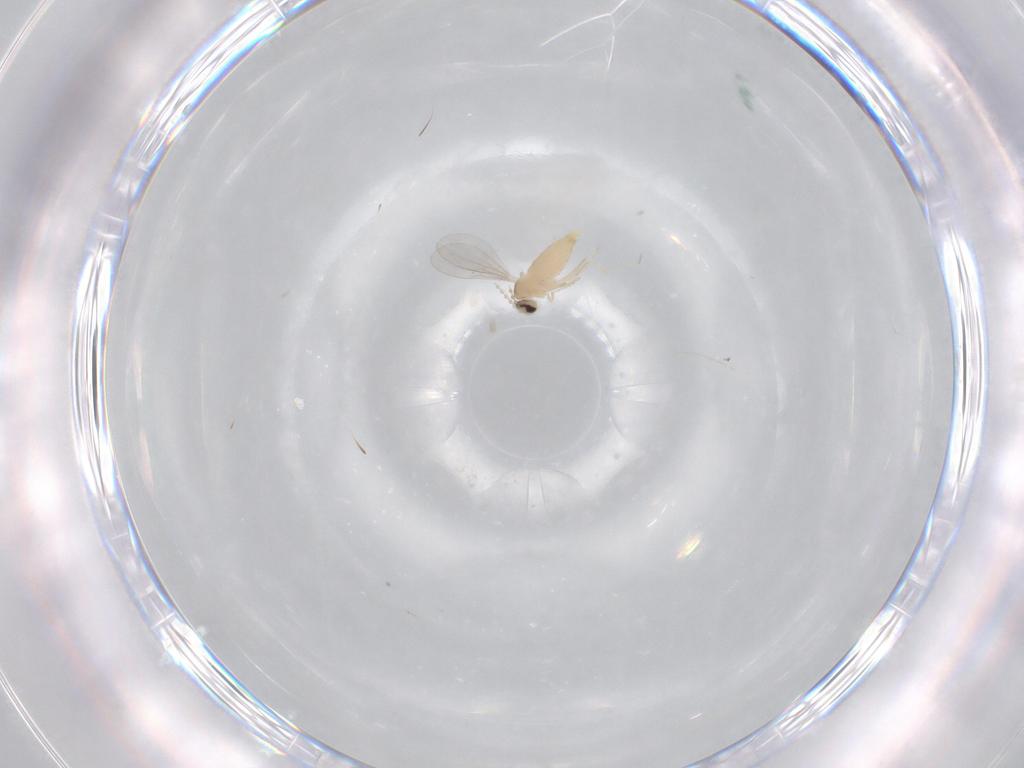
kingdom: Animalia
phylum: Arthropoda
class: Insecta
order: Diptera
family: Cecidomyiidae
